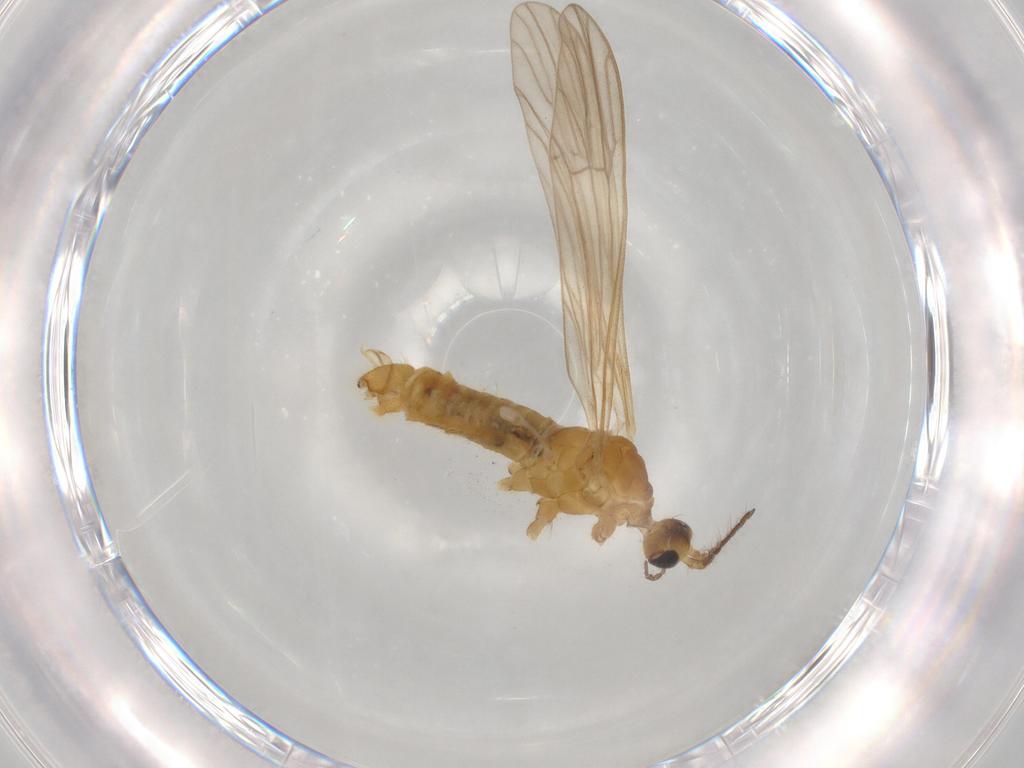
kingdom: Animalia
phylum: Arthropoda
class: Insecta
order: Diptera
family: Limoniidae
